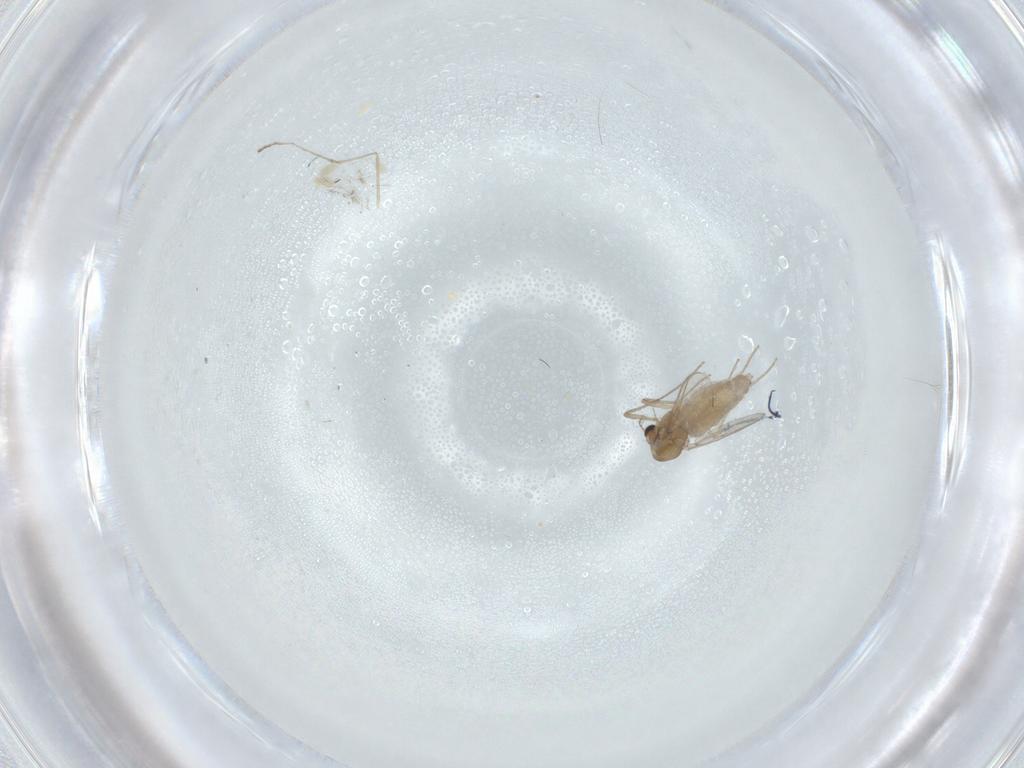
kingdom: Animalia
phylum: Arthropoda
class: Insecta
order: Diptera
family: Chironomidae
